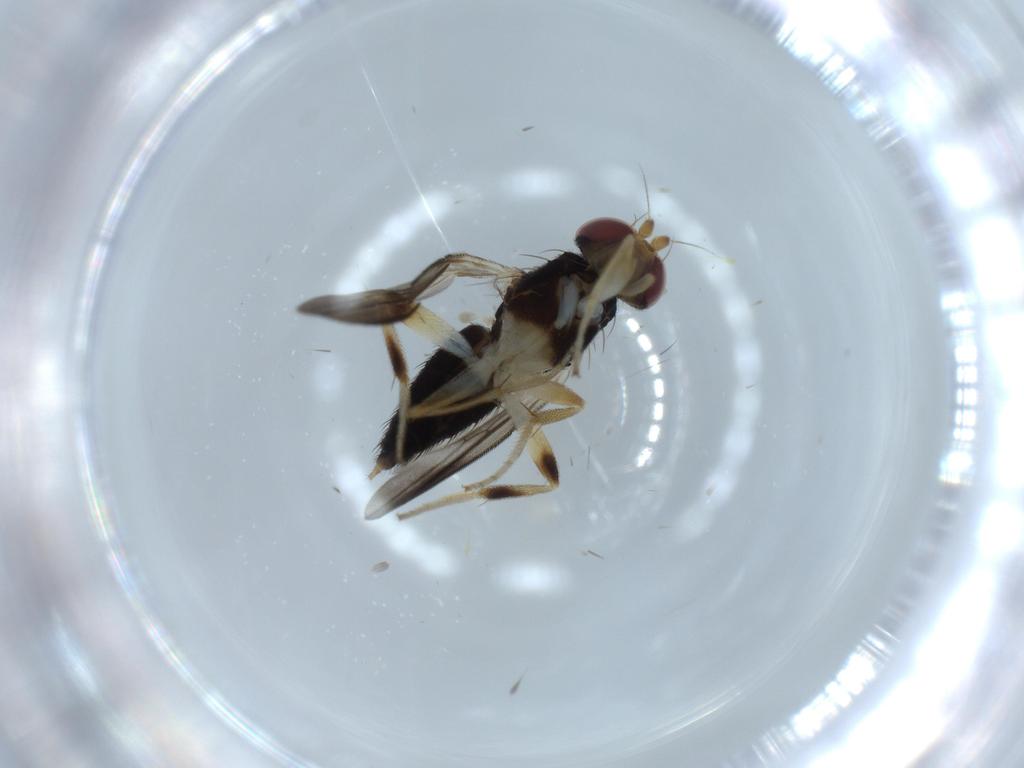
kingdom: Animalia
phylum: Arthropoda
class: Insecta
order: Diptera
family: Clusiidae
